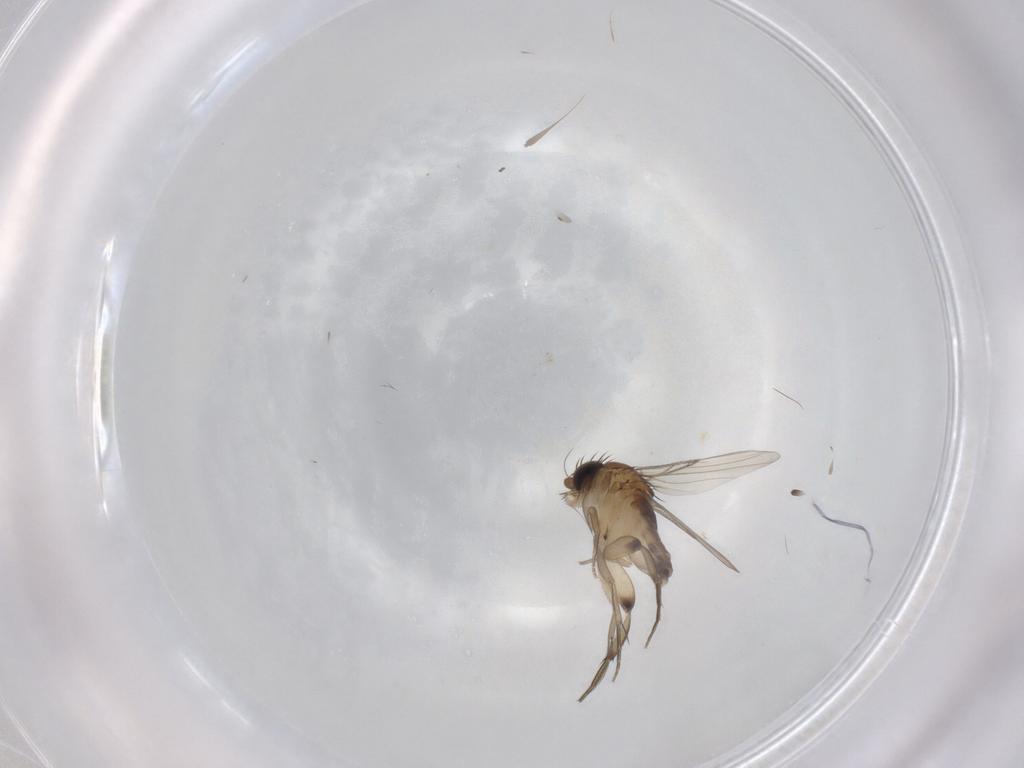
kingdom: Animalia
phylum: Arthropoda
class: Insecta
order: Diptera
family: Phoridae
